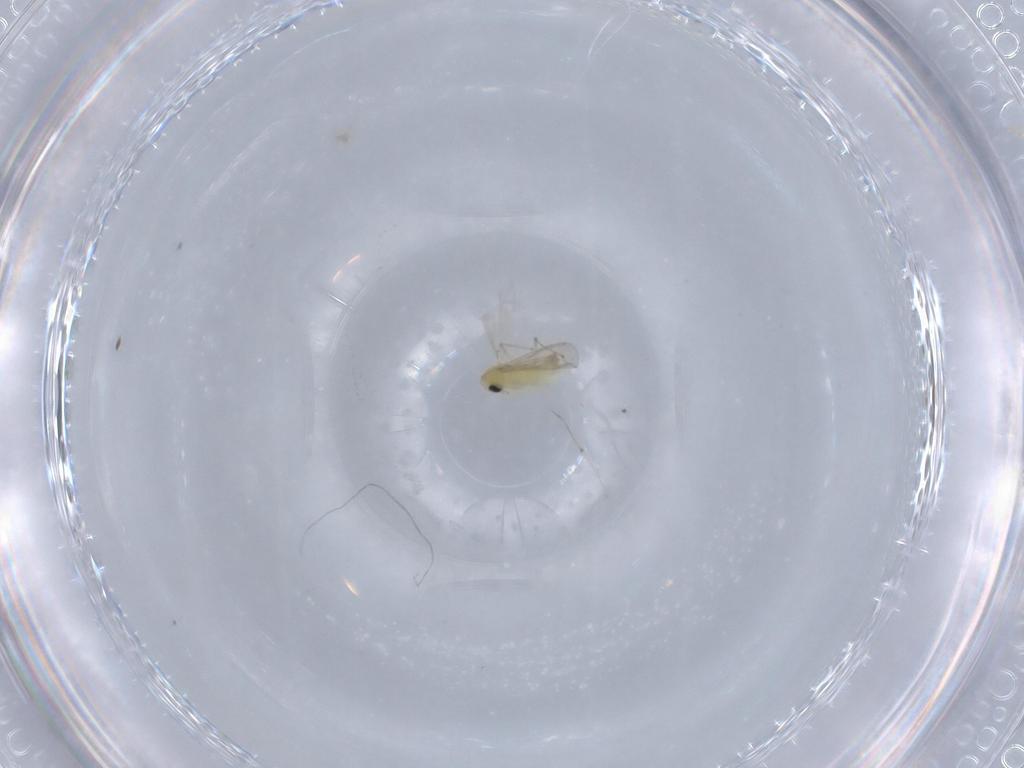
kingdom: Animalia
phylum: Arthropoda
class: Insecta
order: Diptera
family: Chironomidae
